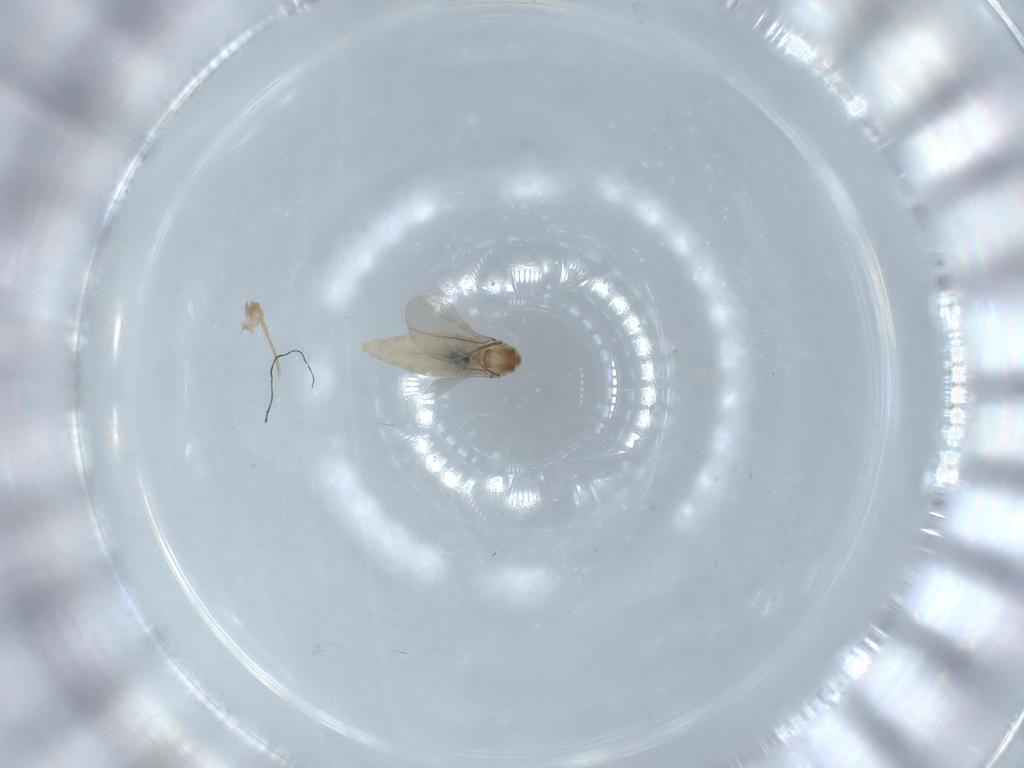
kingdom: Animalia
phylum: Arthropoda
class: Insecta
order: Diptera
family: Cecidomyiidae
